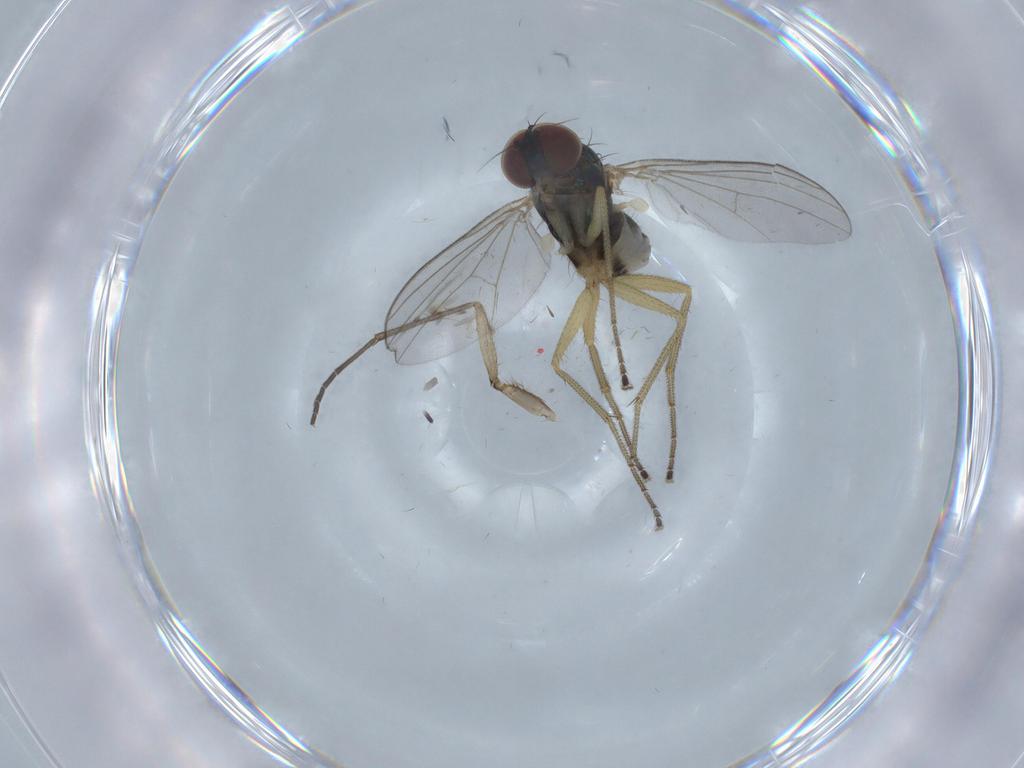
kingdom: Animalia
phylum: Arthropoda
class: Insecta
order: Diptera
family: Dolichopodidae
